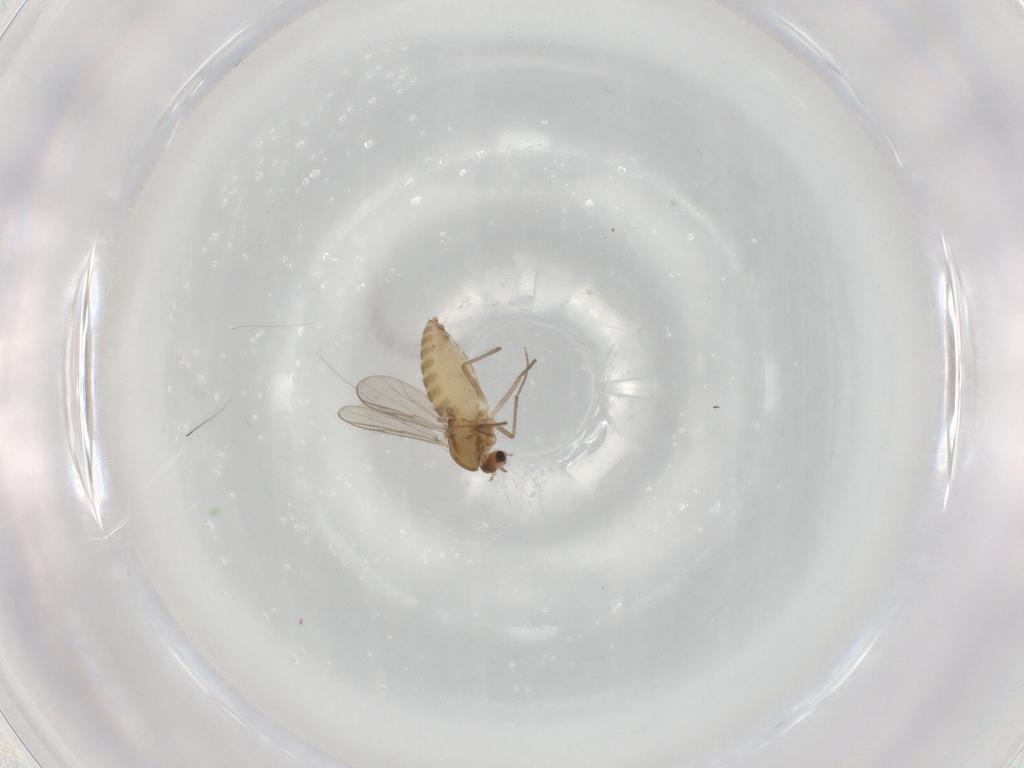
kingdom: Animalia
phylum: Arthropoda
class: Insecta
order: Diptera
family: Chironomidae
